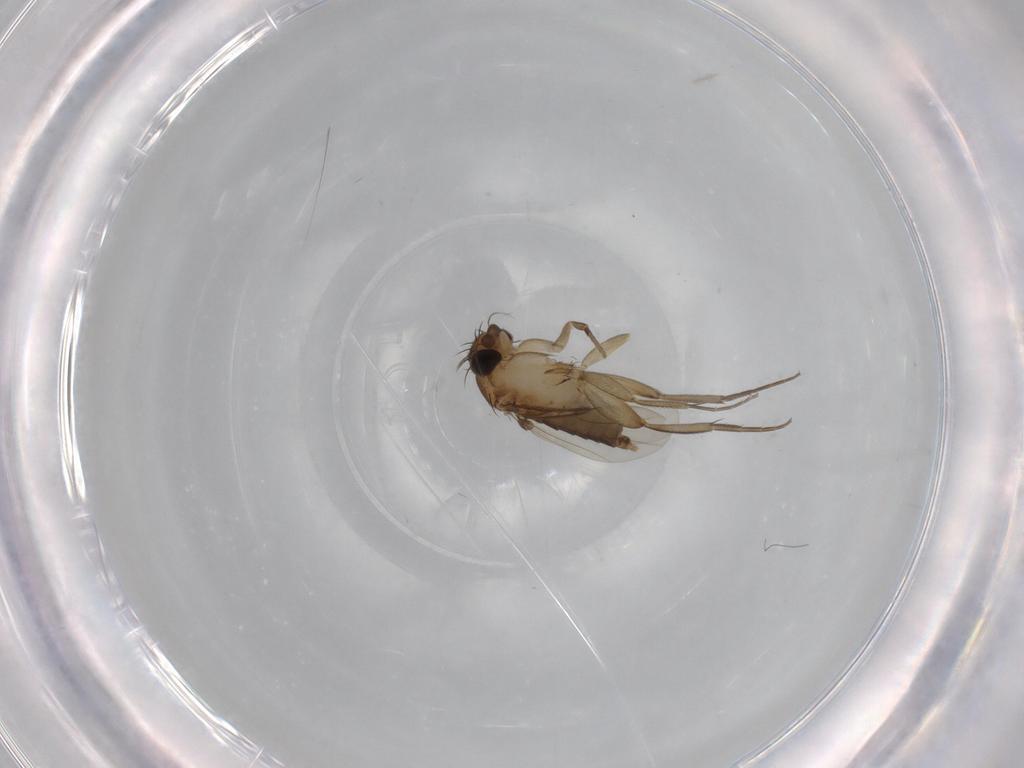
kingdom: Animalia
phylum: Arthropoda
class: Insecta
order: Diptera
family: Phoridae
